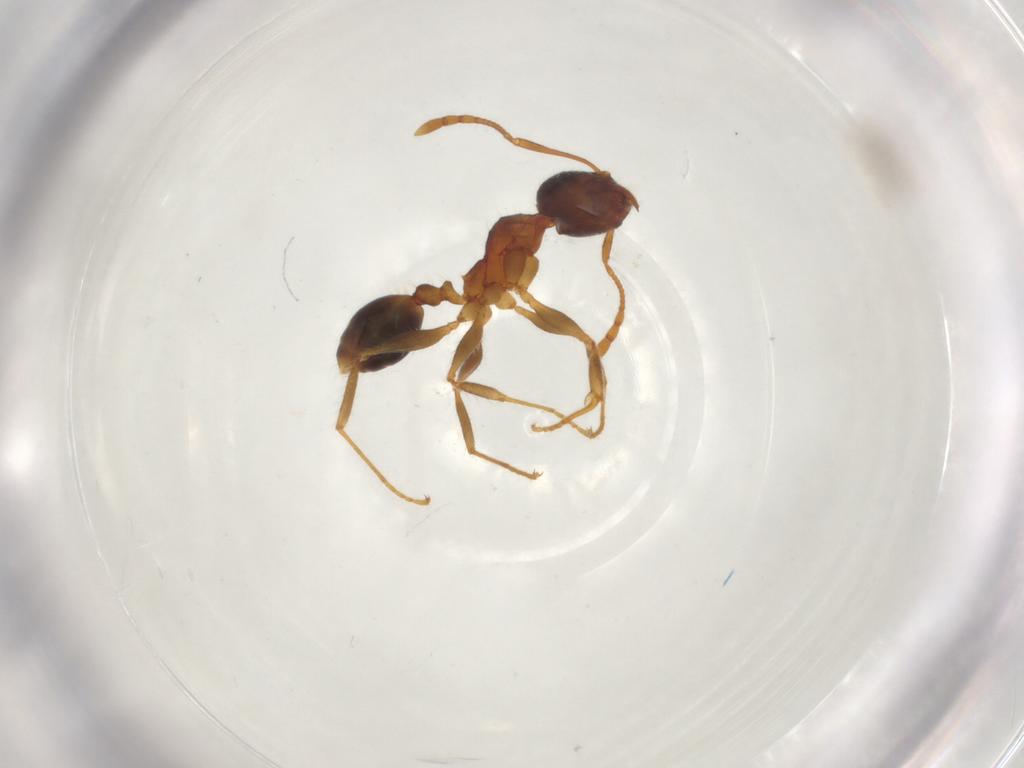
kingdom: Animalia
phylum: Arthropoda
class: Insecta
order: Hymenoptera
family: Formicidae
